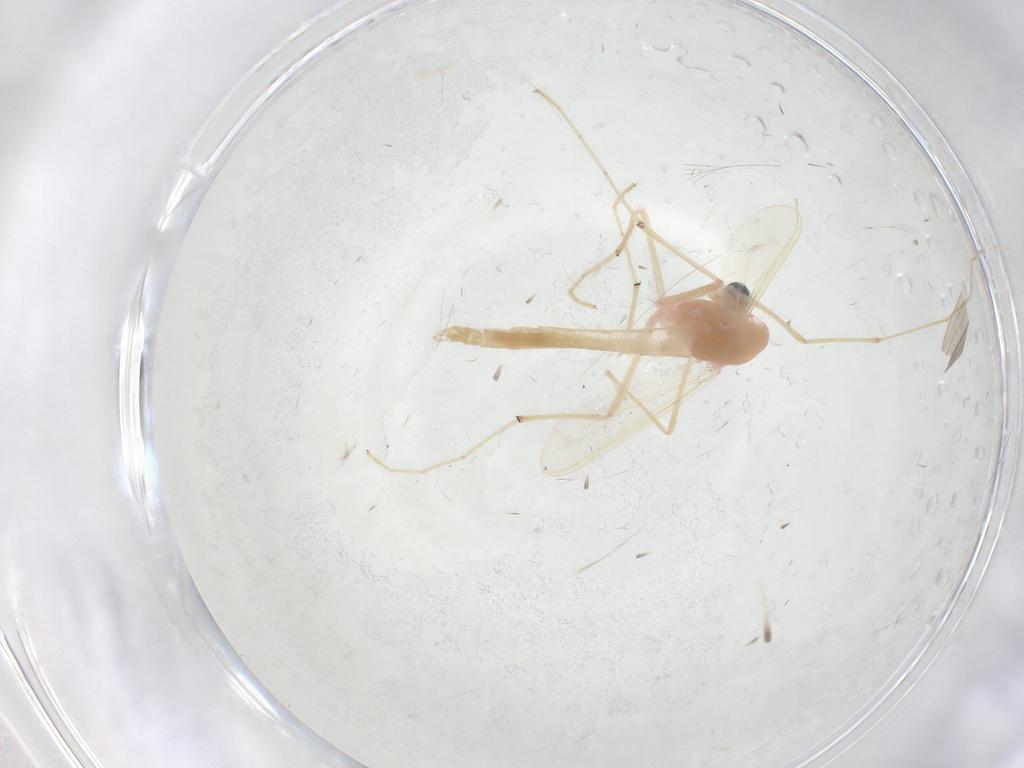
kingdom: Animalia
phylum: Arthropoda
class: Insecta
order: Diptera
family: Chironomidae
